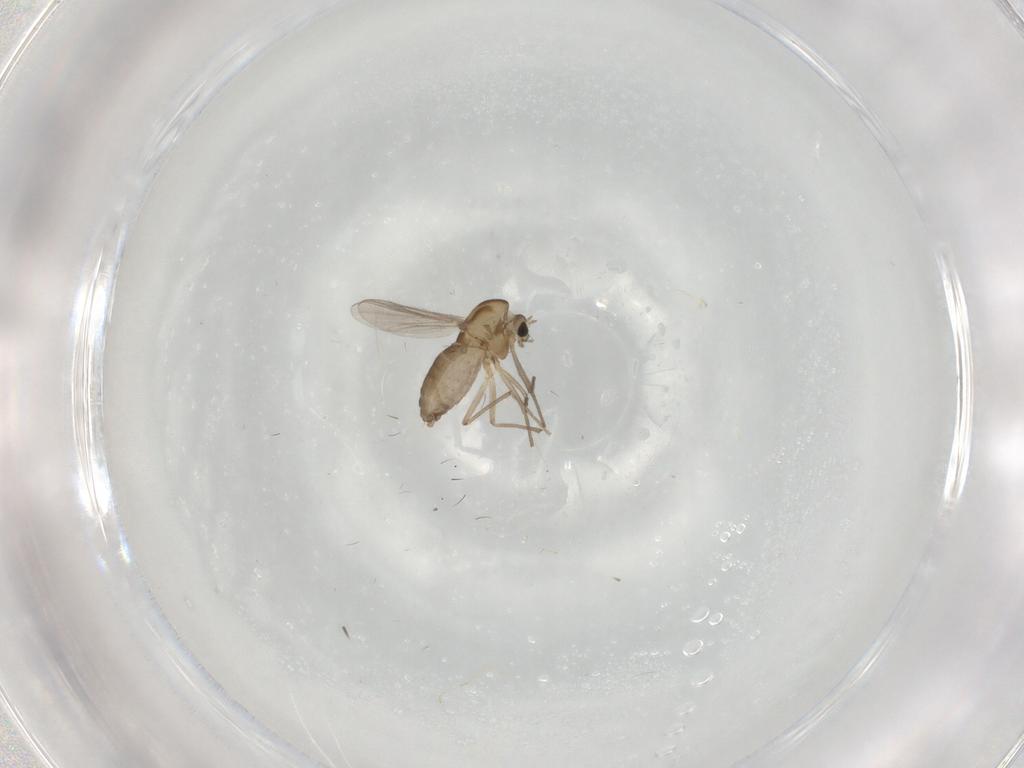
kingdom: Animalia
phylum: Arthropoda
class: Insecta
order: Diptera
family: Chironomidae
